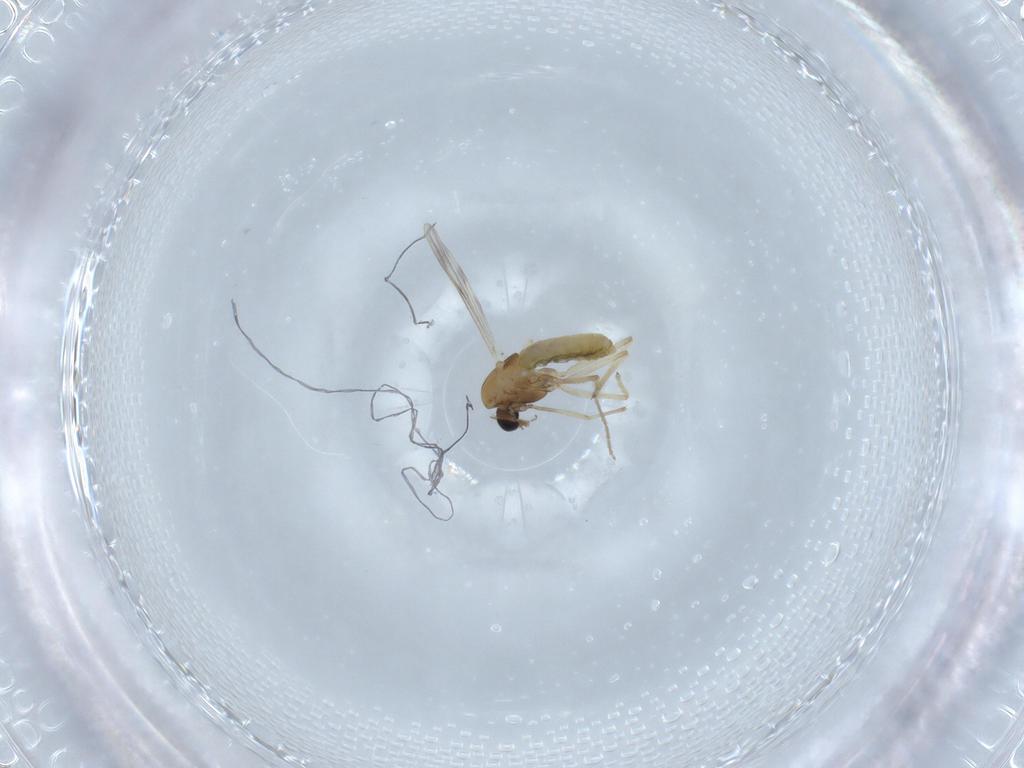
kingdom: Animalia
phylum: Arthropoda
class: Insecta
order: Diptera
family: Chironomidae
